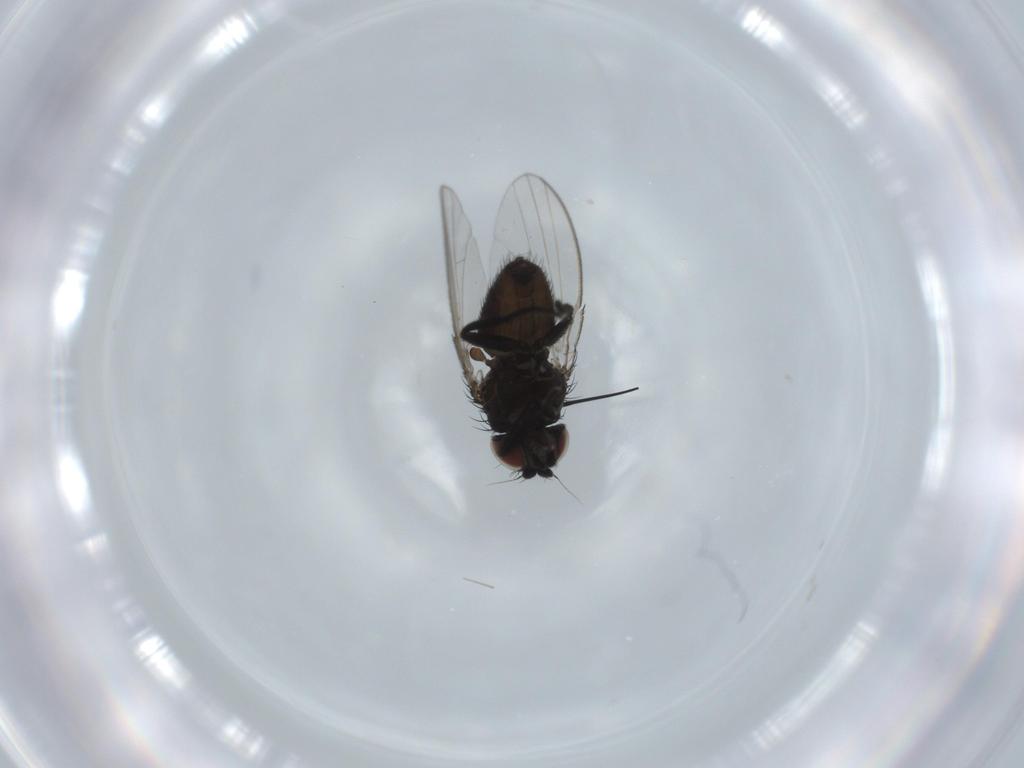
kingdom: Animalia
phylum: Arthropoda
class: Insecta
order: Diptera
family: Milichiidae
